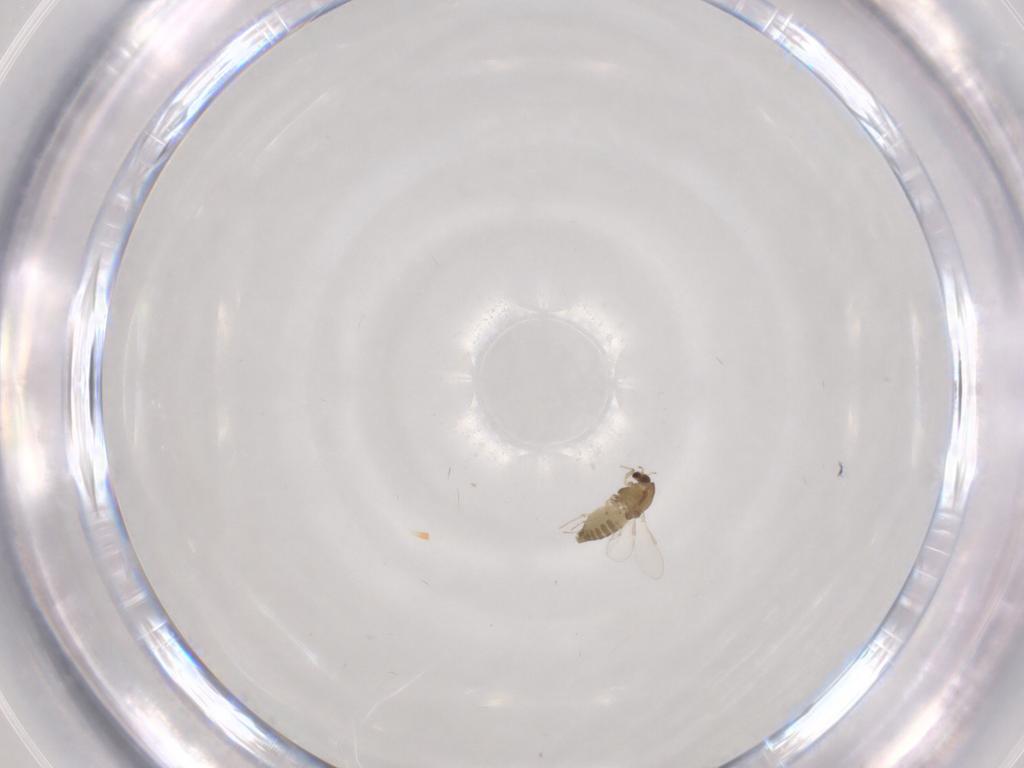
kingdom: Animalia
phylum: Arthropoda
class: Insecta
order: Diptera
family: Chironomidae
